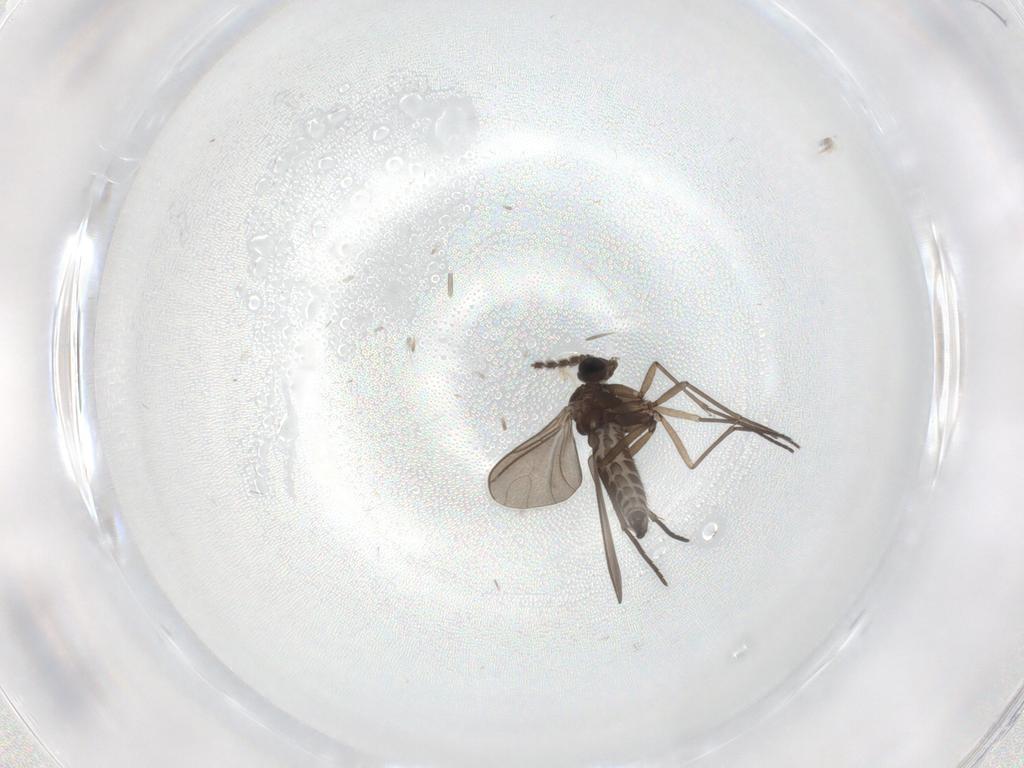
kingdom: Animalia
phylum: Arthropoda
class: Insecta
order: Diptera
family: Sciaridae
